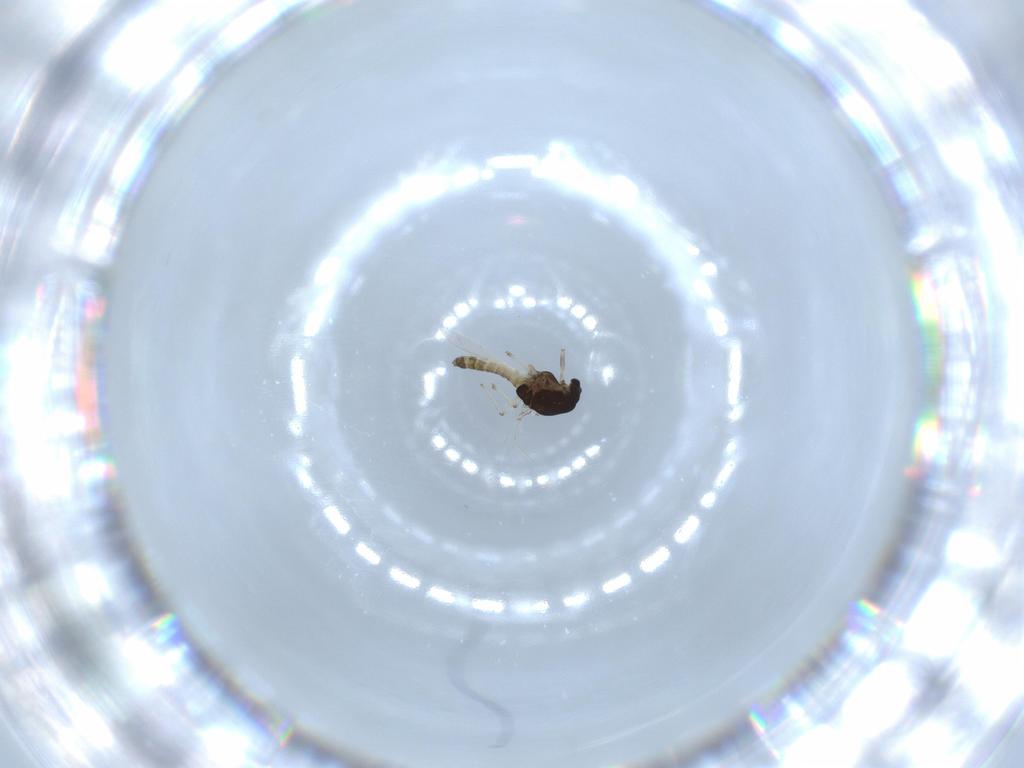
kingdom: Animalia
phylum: Arthropoda
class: Insecta
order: Diptera
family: Chironomidae
